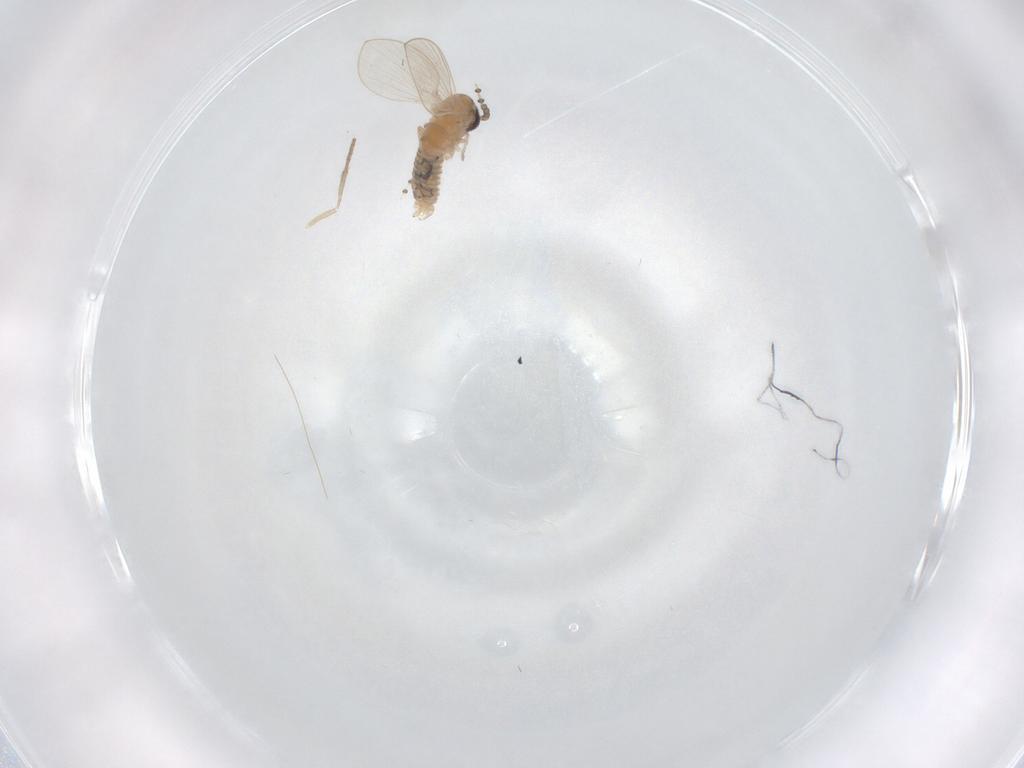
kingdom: Animalia
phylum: Arthropoda
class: Insecta
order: Diptera
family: Psychodidae
